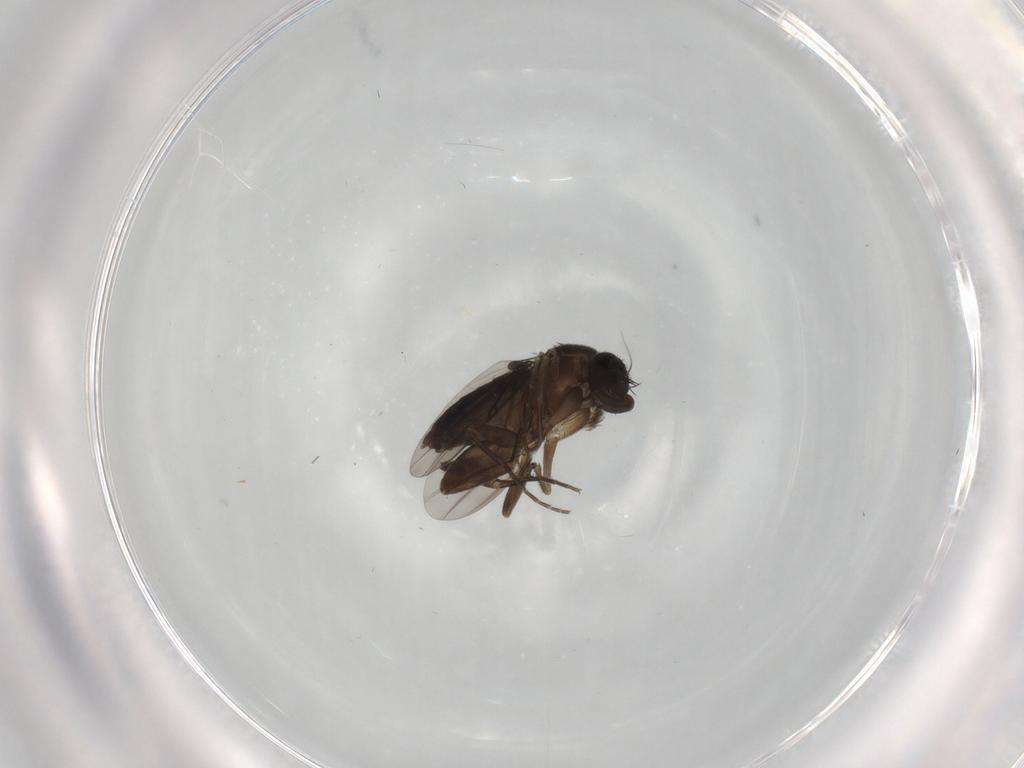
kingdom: Animalia
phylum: Arthropoda
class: Insecta
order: Diptera
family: Phoridae
